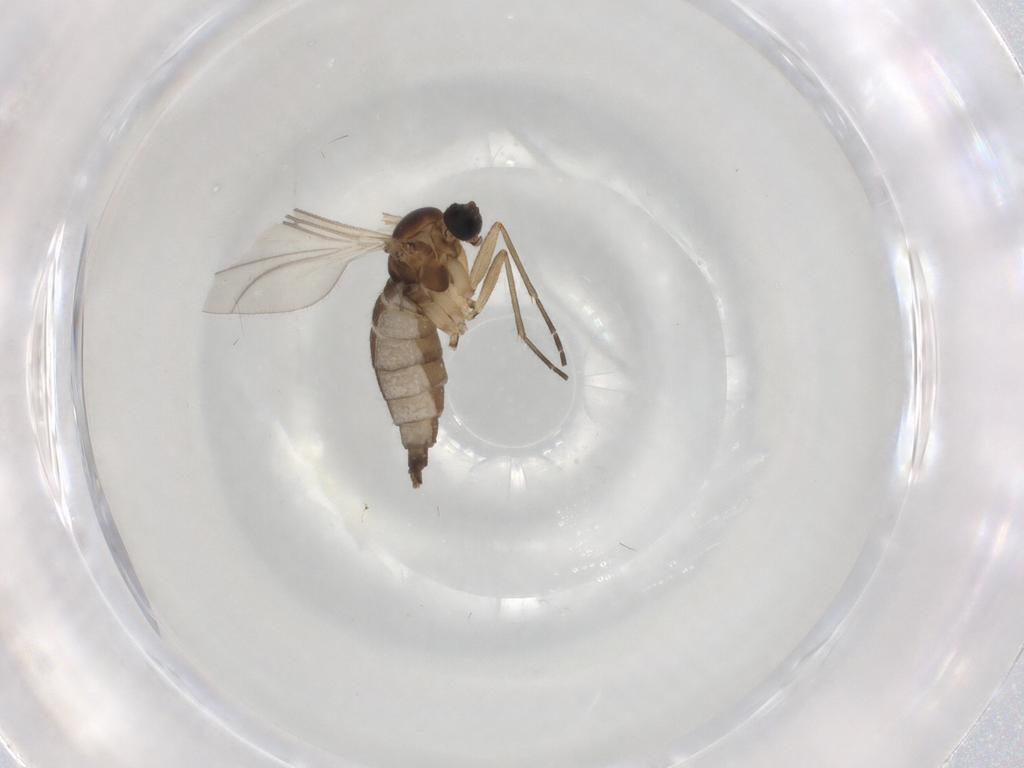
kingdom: Animalia
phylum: Arthropoda
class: Insecta
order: Diptera
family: Sciaridae
